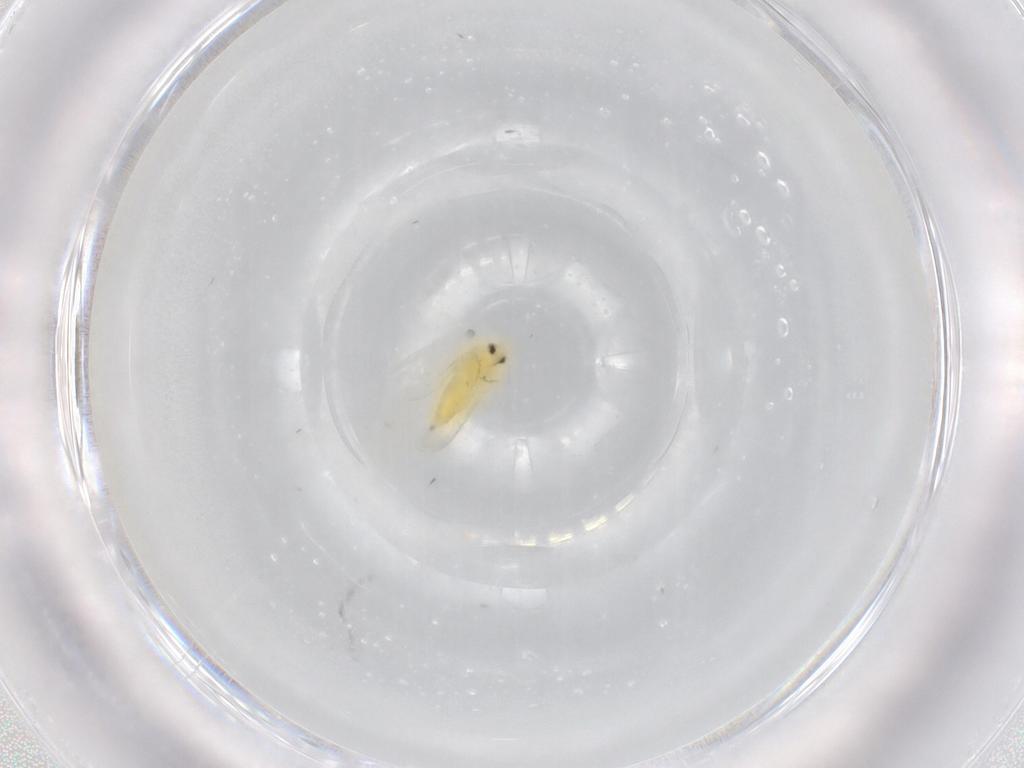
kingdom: Animalia
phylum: Arthropoda
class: Insecta
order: Hemiptera
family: Aleyrodidae
